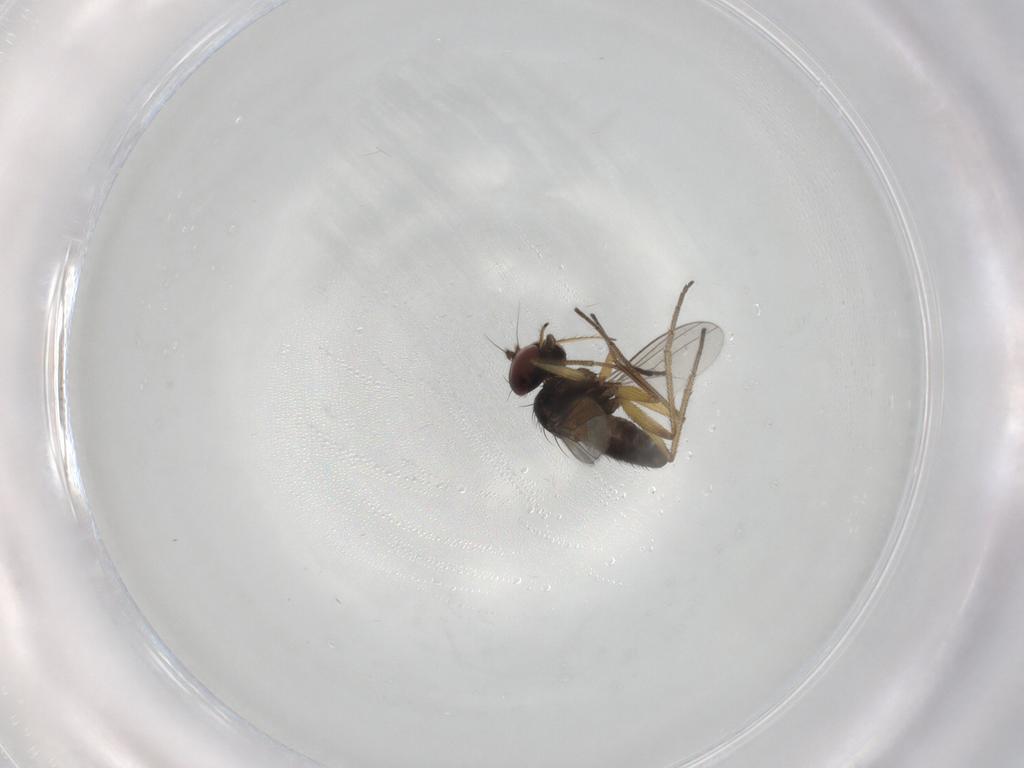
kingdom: Animalia
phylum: Arthropoda
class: Insecta
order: Diptera
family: Dolichopodidae
